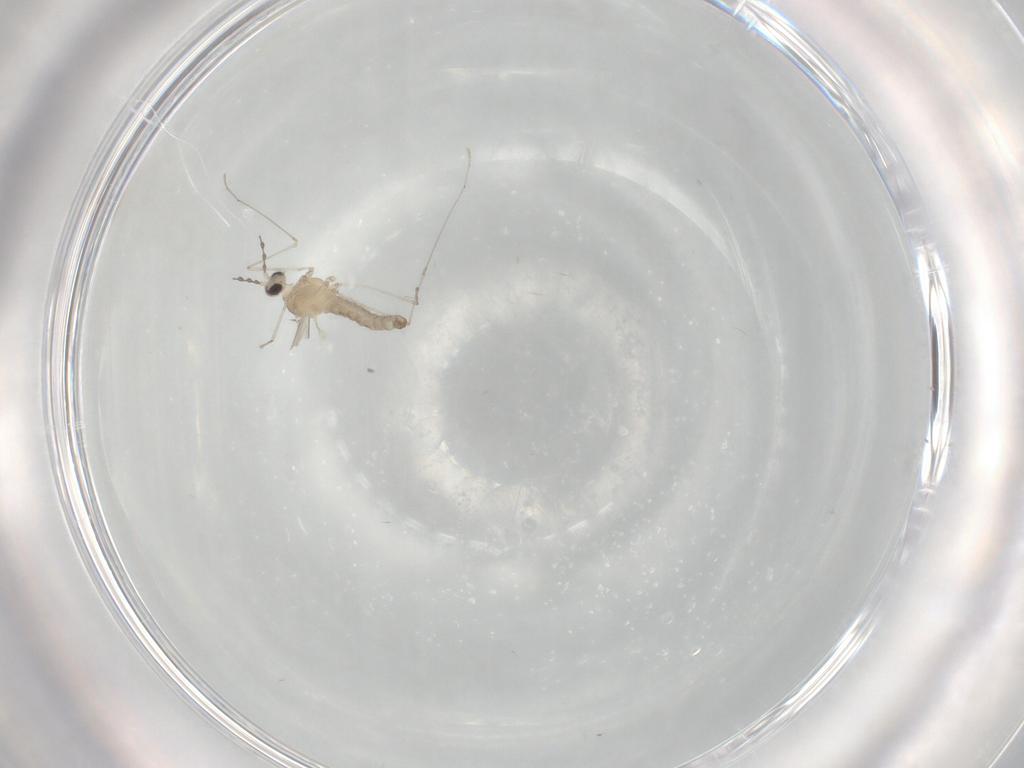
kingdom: Animalia
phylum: Arthropoda
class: Insecta
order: Diptera
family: Cecidomyiidae
